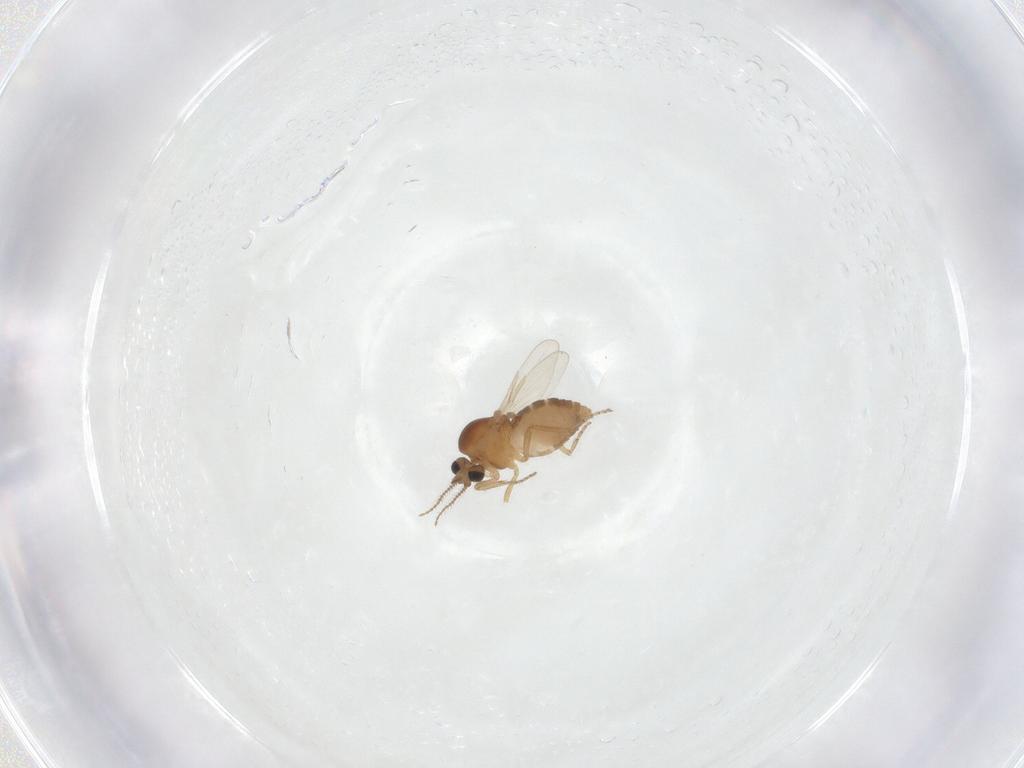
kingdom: Animalia
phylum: Arthropoda
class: Insecta
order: Diptera
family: Ceratopogonidae
